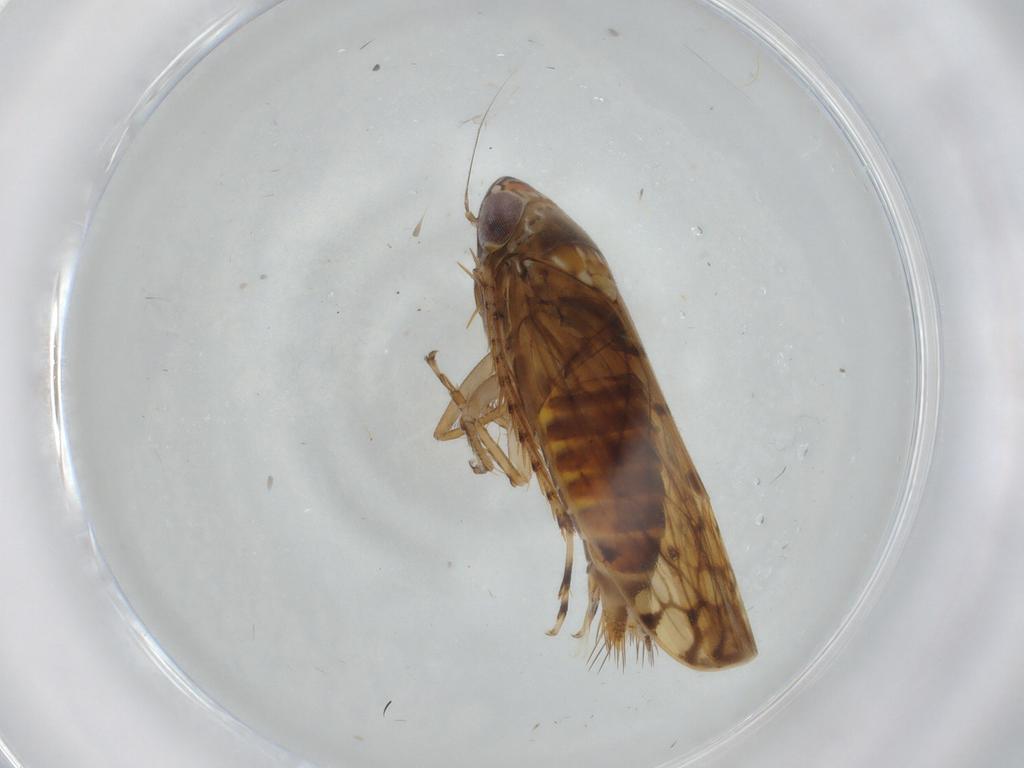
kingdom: Animalia
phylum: Arthropoda
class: Insecta
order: Hemiptera
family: Cicadellidae
